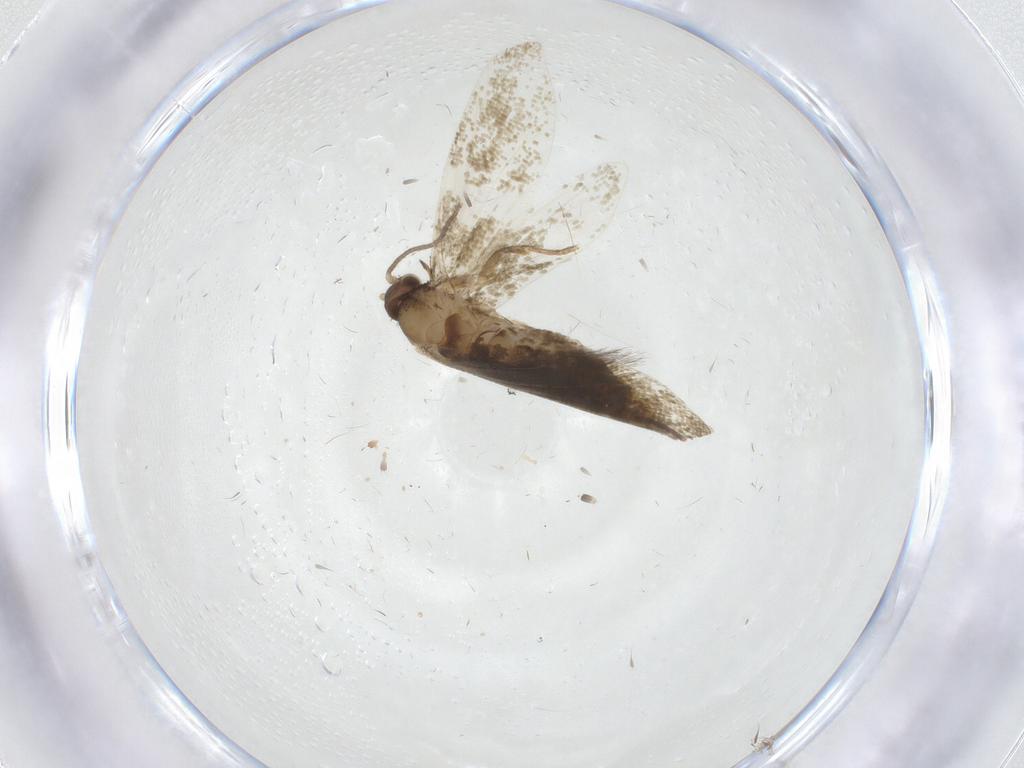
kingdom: Animalia
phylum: Arthropoda
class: Insecta
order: Lepidoptera
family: Tineidae
